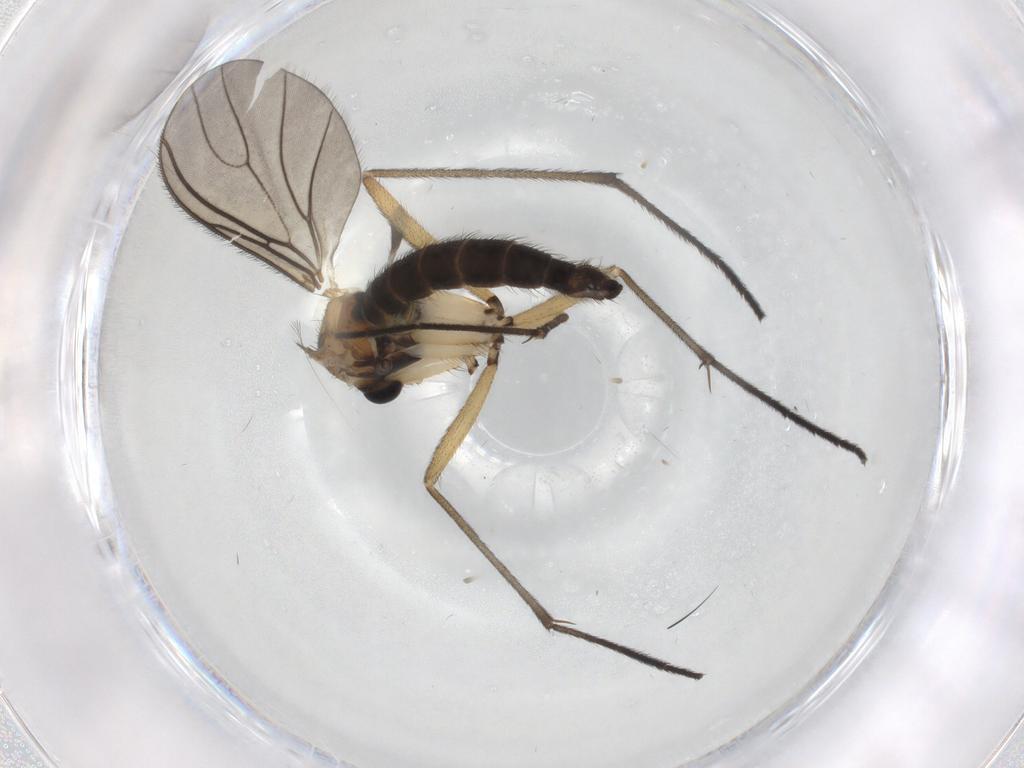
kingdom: Animalia
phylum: Arthropoda
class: Insecta
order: Diptera
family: Sciaridae
